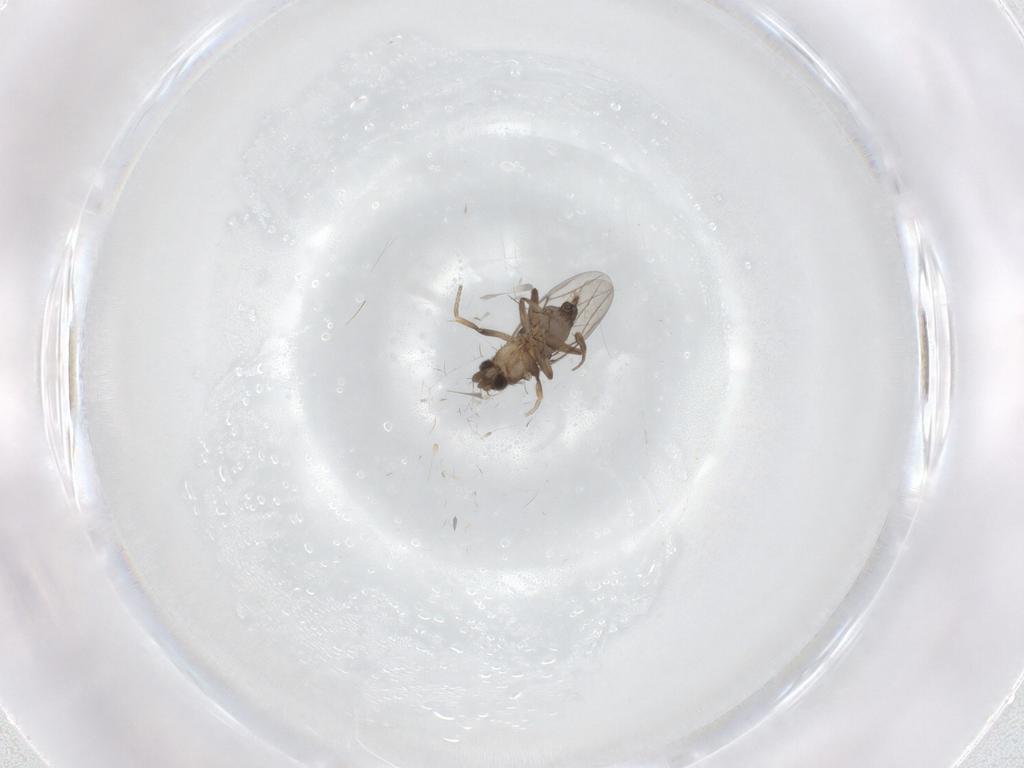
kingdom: Animalia
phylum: Arthropoda
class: Insecta
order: Diptera
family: Phoridae
